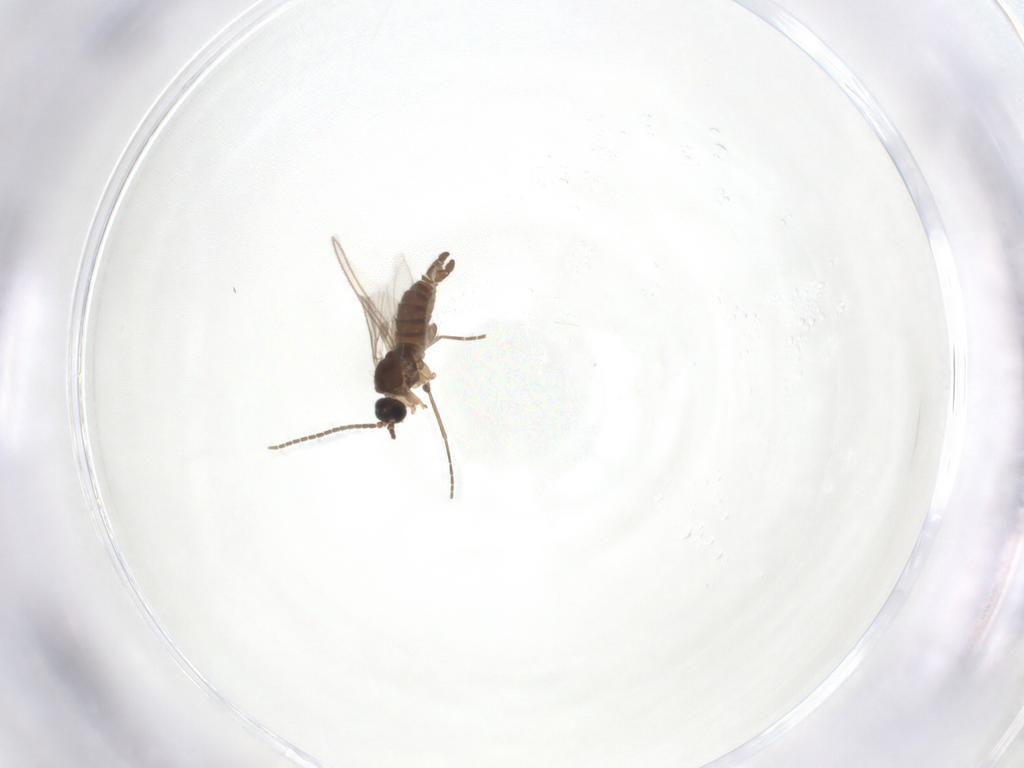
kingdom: Animalia
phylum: Arthropoda
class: Insecta
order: Diptera
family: Sciaridae
